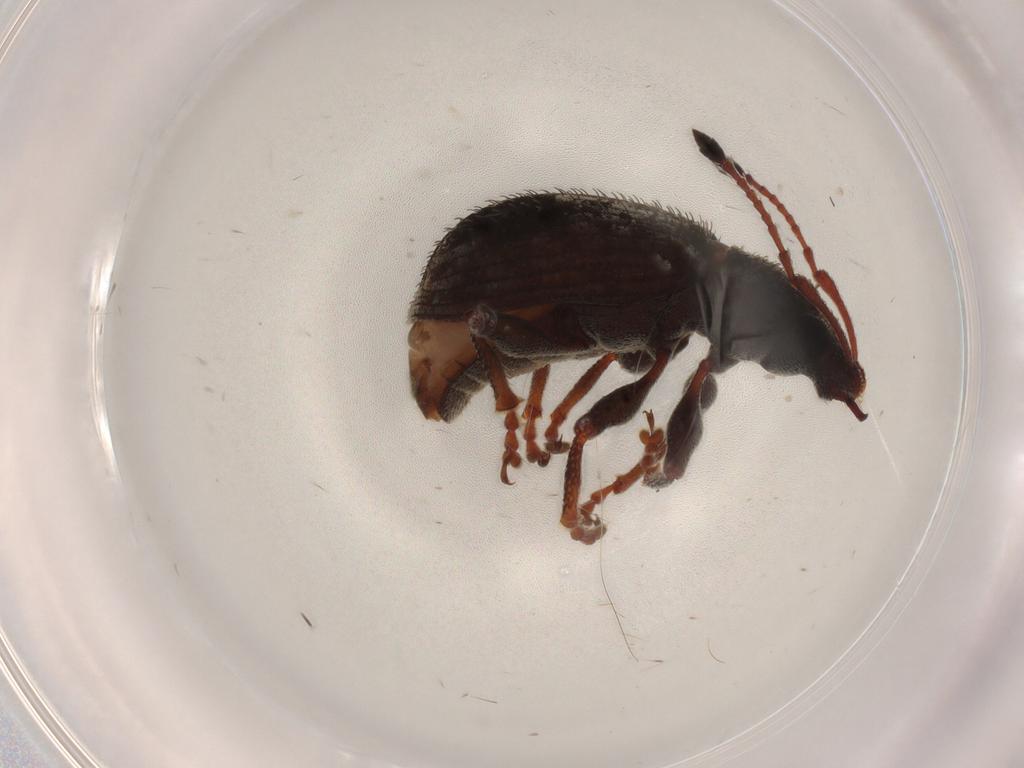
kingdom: Animalia
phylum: Arthropoda
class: Insecta
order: Coleoptera
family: Curculionidae
